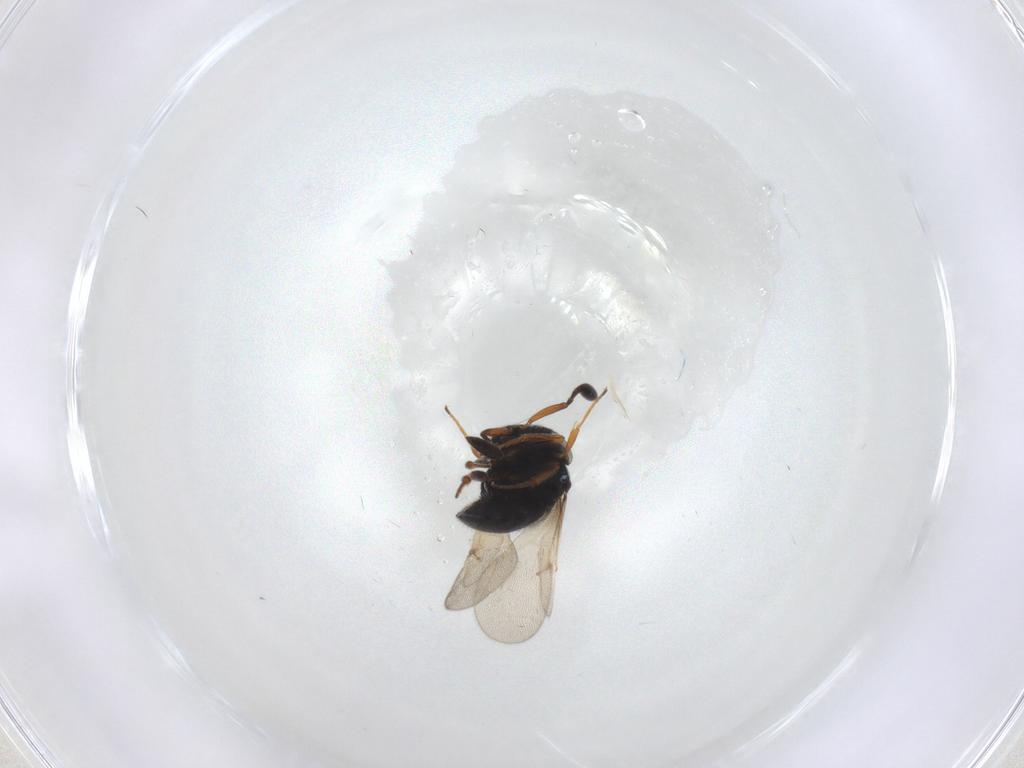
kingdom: Animalia
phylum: Arthropoda
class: Insecta
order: Hymenoptera
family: Scelionidae
